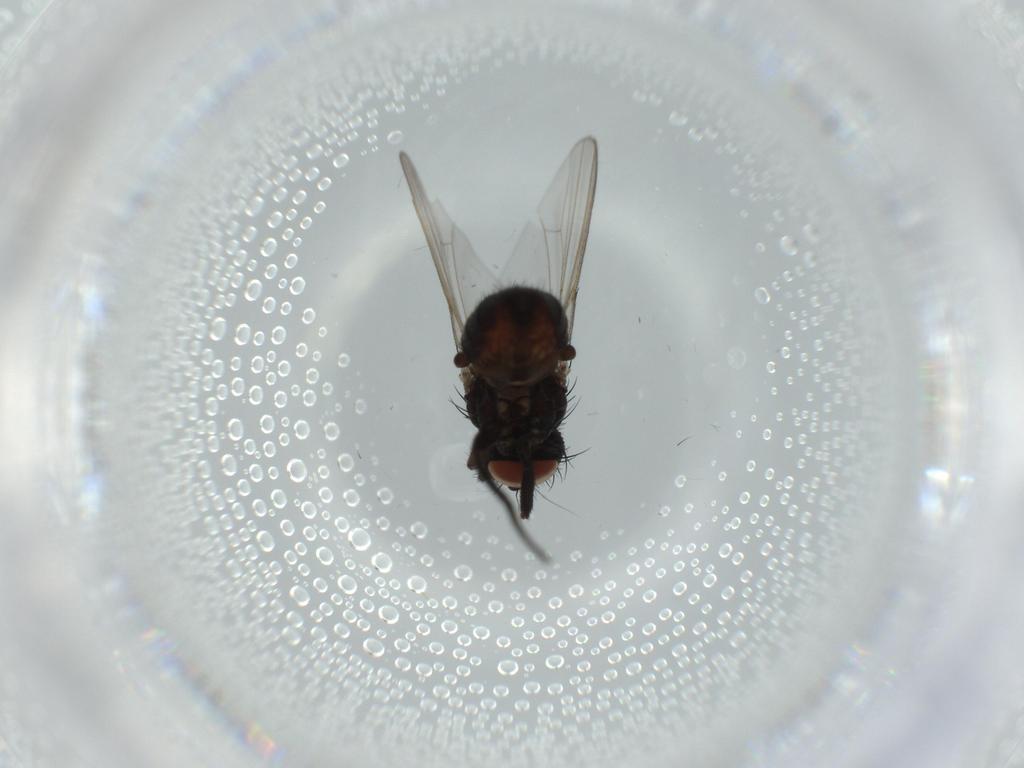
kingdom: Animalia
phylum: Arthropoda
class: Insecta
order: Diptera
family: Milichiidae
